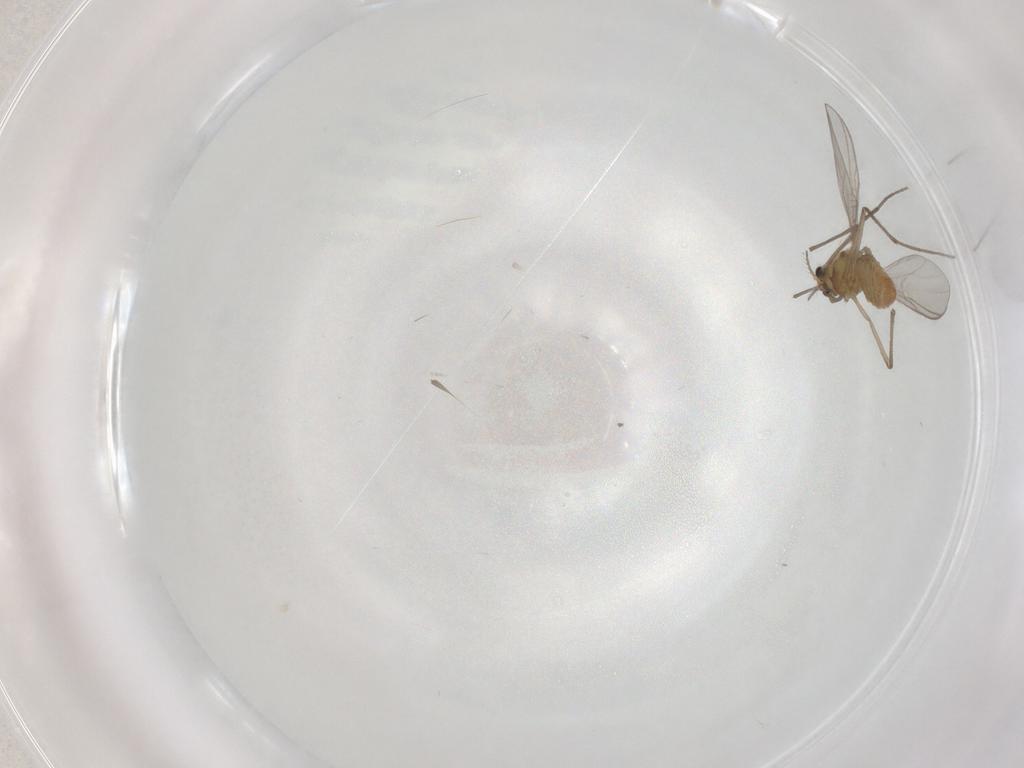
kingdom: Animalia
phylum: Arthropoda
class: Insecta
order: Diptera
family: Chironomidae
